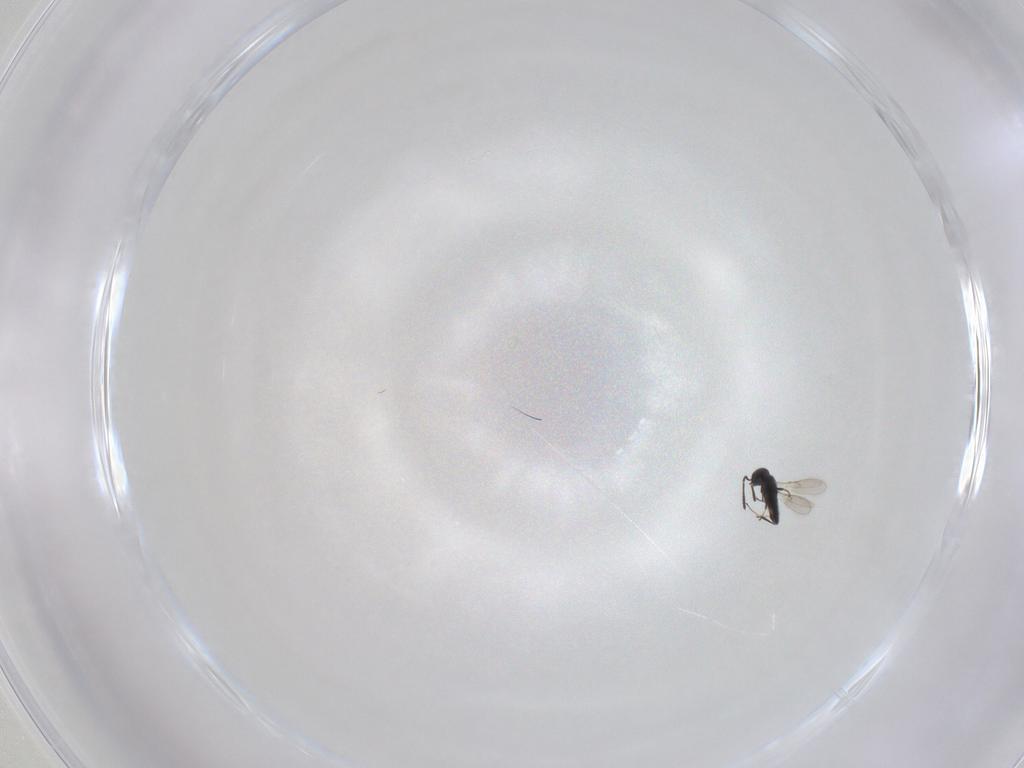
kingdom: Animalia
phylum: Arthropoda
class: Insecta
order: Hymenoptera
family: Scelionidae
